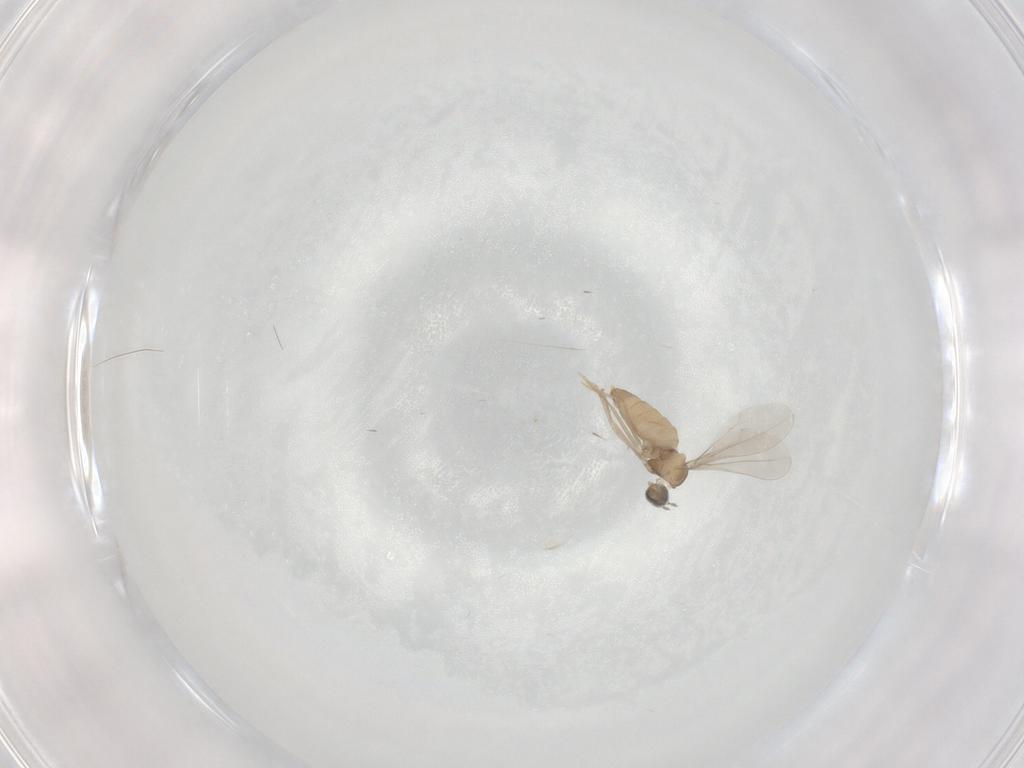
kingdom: Animalia
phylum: Arthropoda
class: Insecta
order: Diptera
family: Cecidomyiidae
